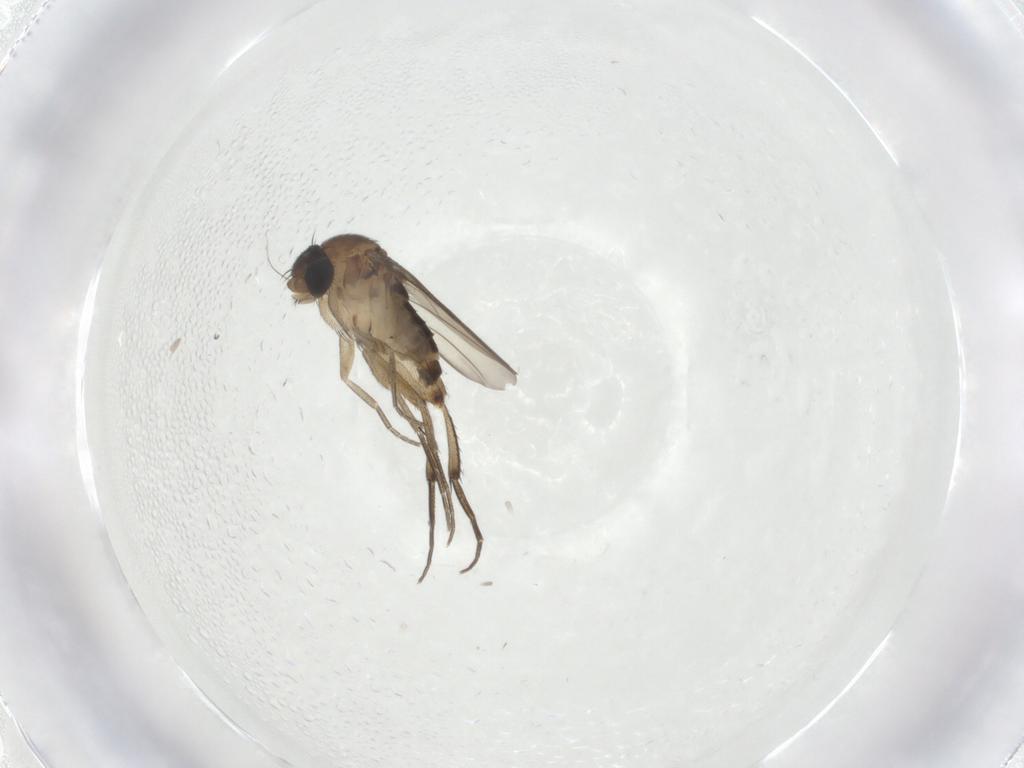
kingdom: Animalia
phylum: Arthropoda
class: Insecta
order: Diptera
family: Phoridae
